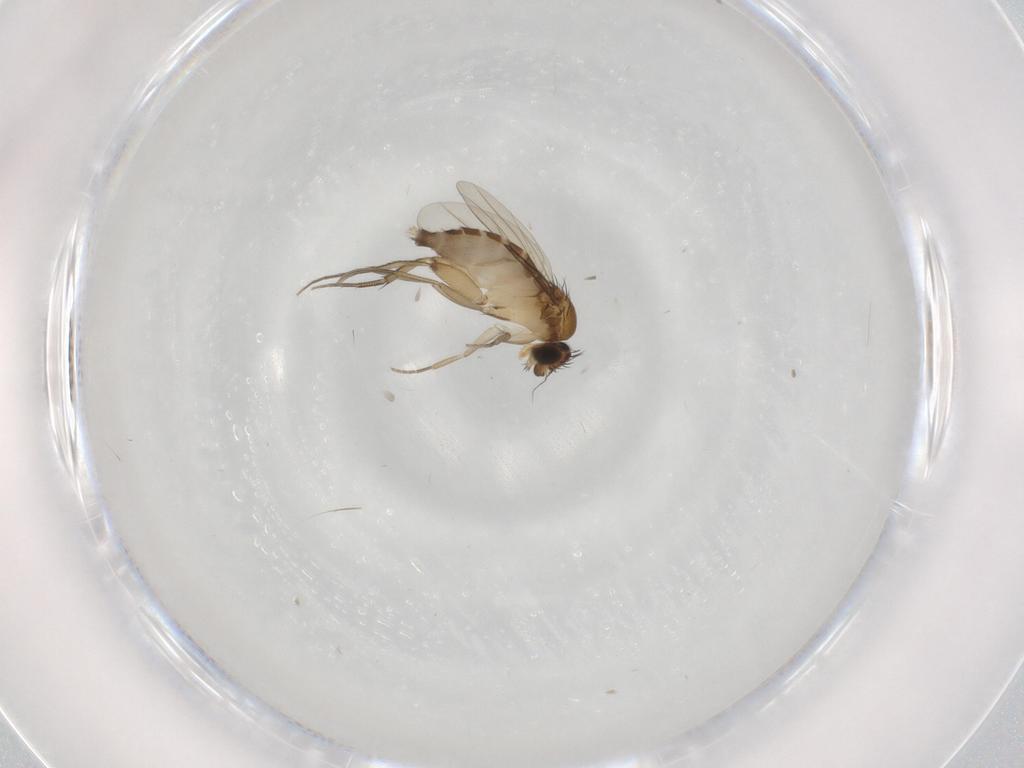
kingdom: Animalia
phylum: Arthropoda
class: Insecta
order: Diptera
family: Phoridae
